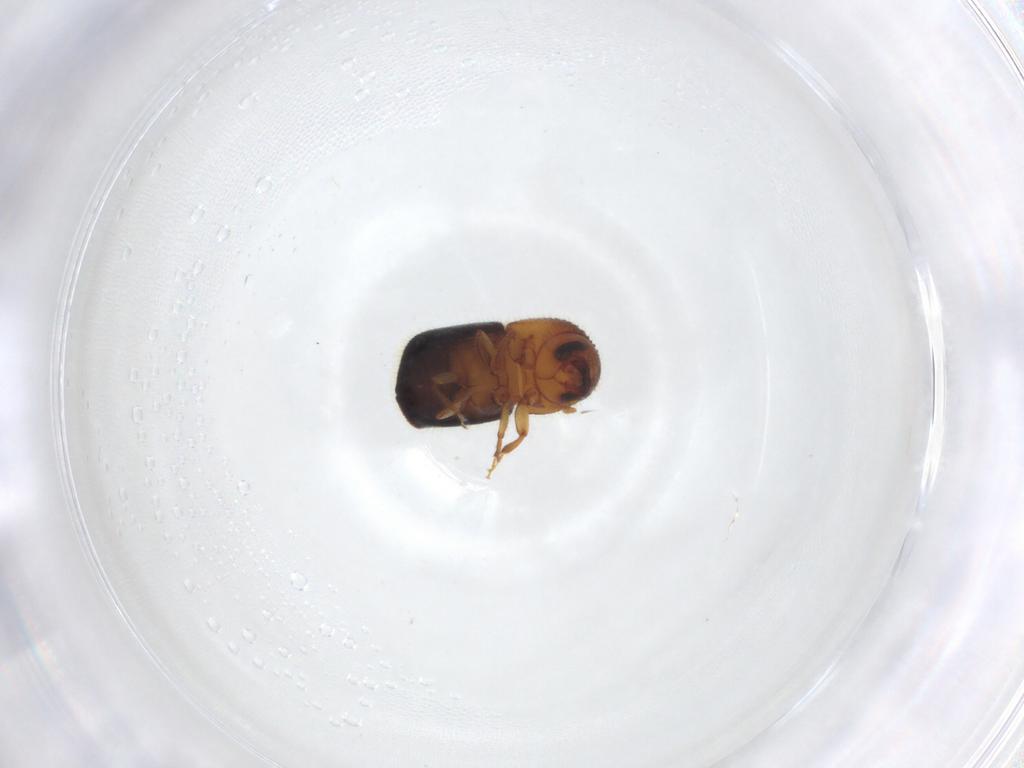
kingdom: Animalia
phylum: Arthropoda
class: Insecta
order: Coleoptera
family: Curculionidae
